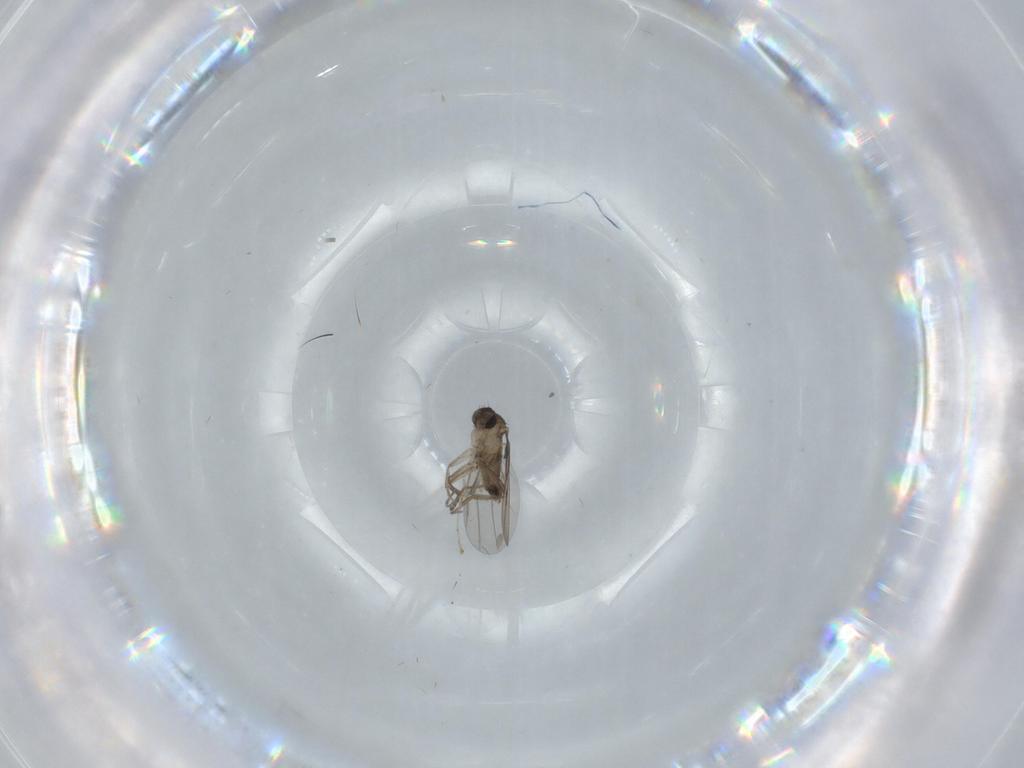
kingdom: Animalia
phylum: Arthropoda
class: Insecta
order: Diptera
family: Cecidomyiidae
